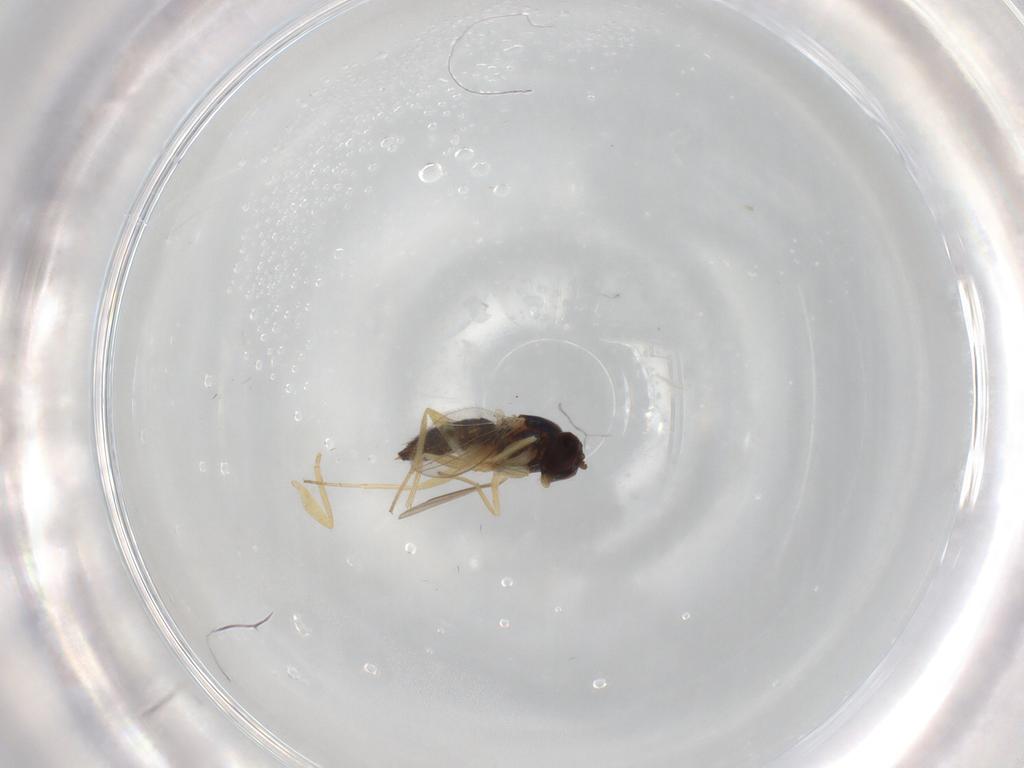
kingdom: Animalia
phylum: Arthropoda
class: Insecta
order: Diptera
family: Dolichopodidae
